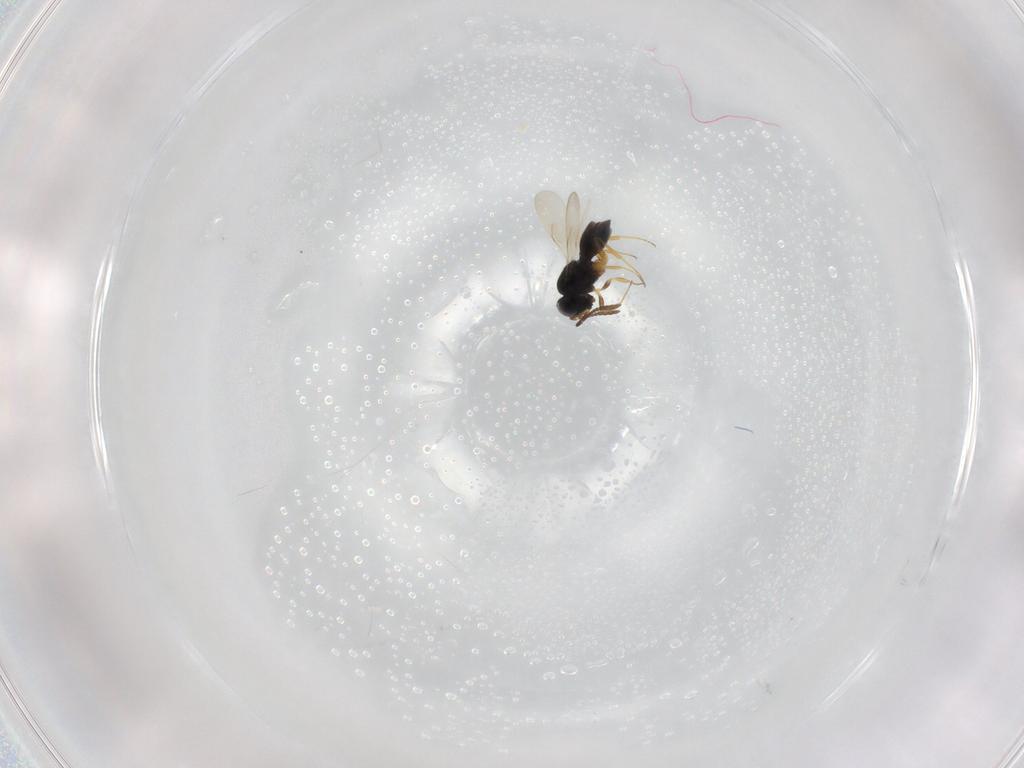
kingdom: Animalia
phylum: Arthropoda
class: Insecta
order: Hymenoptera
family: Scelionidae
